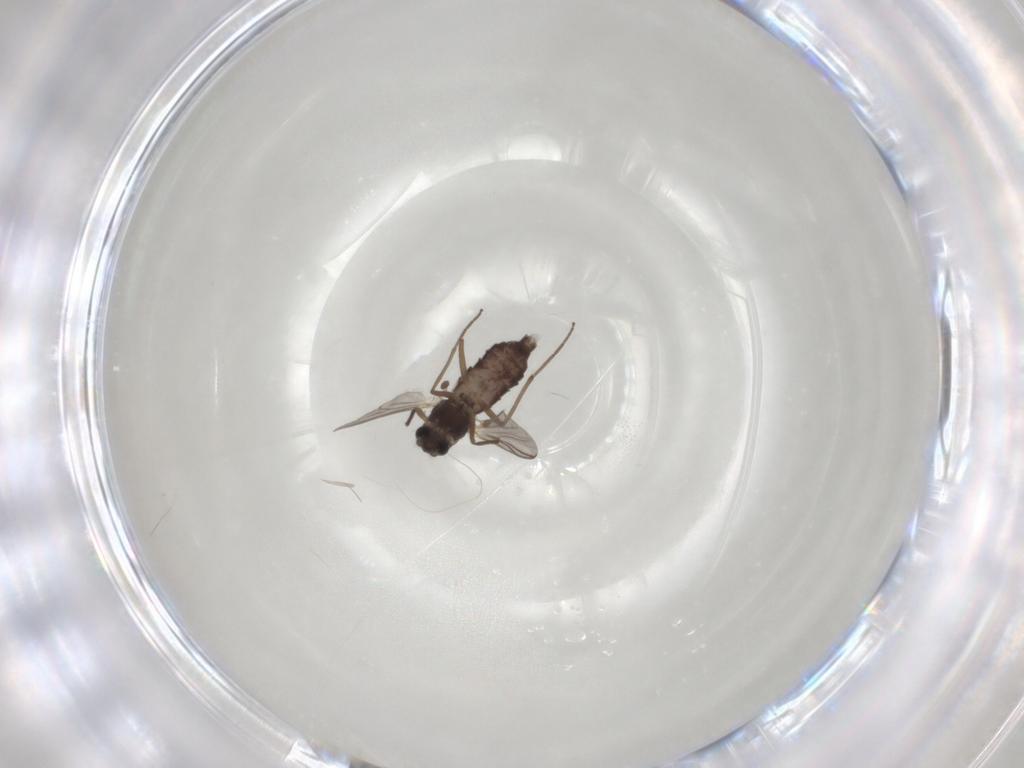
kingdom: Animalia
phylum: Arthropoda
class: Insecta
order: Diptera
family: Chironomidae
